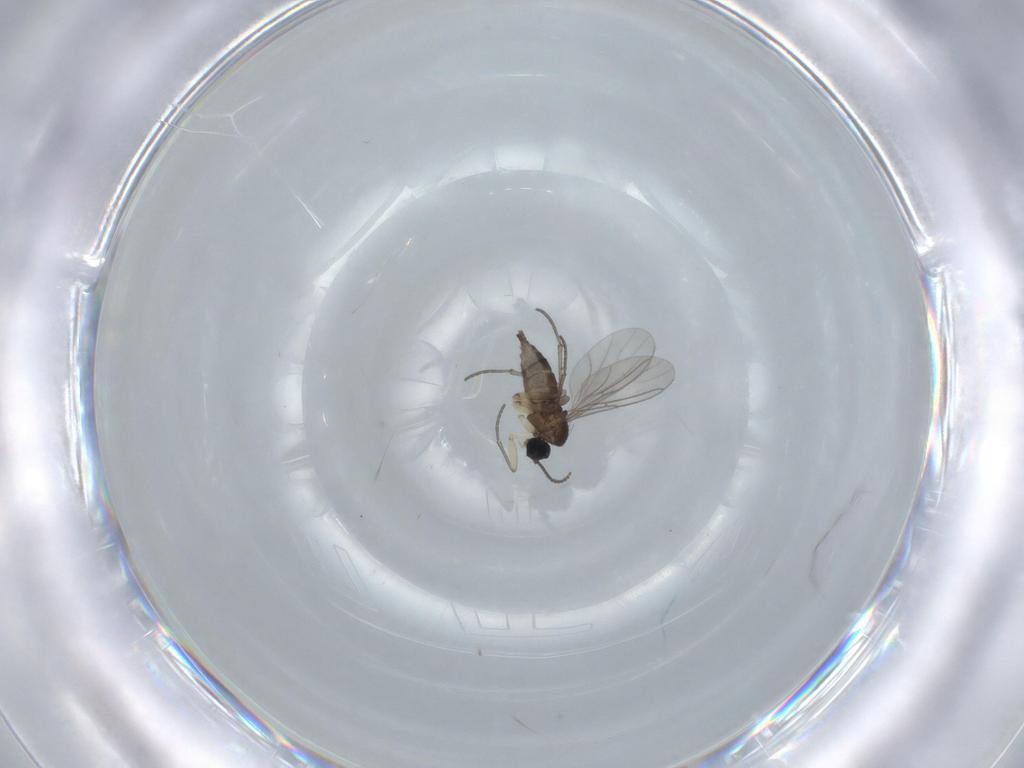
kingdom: Animalia
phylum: Arthropoda
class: Insecta
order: Diptera
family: Sciaridae
